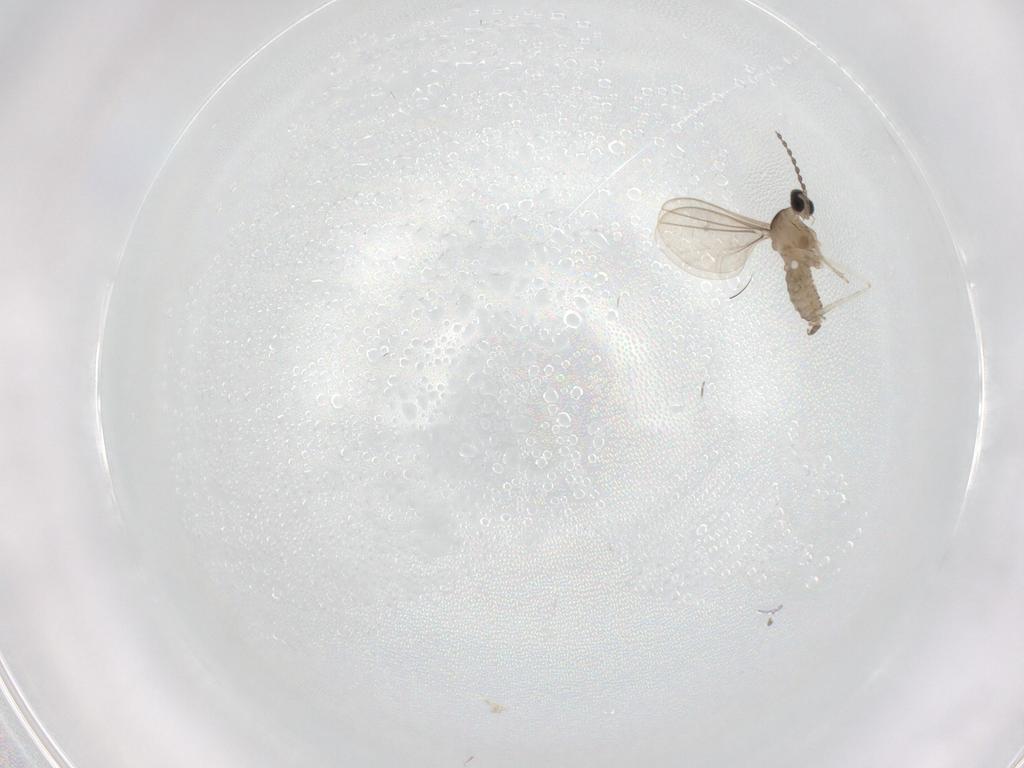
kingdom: Animalia
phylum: Arthropoda
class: Insecta
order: Diptera
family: Cecidomyiidae
